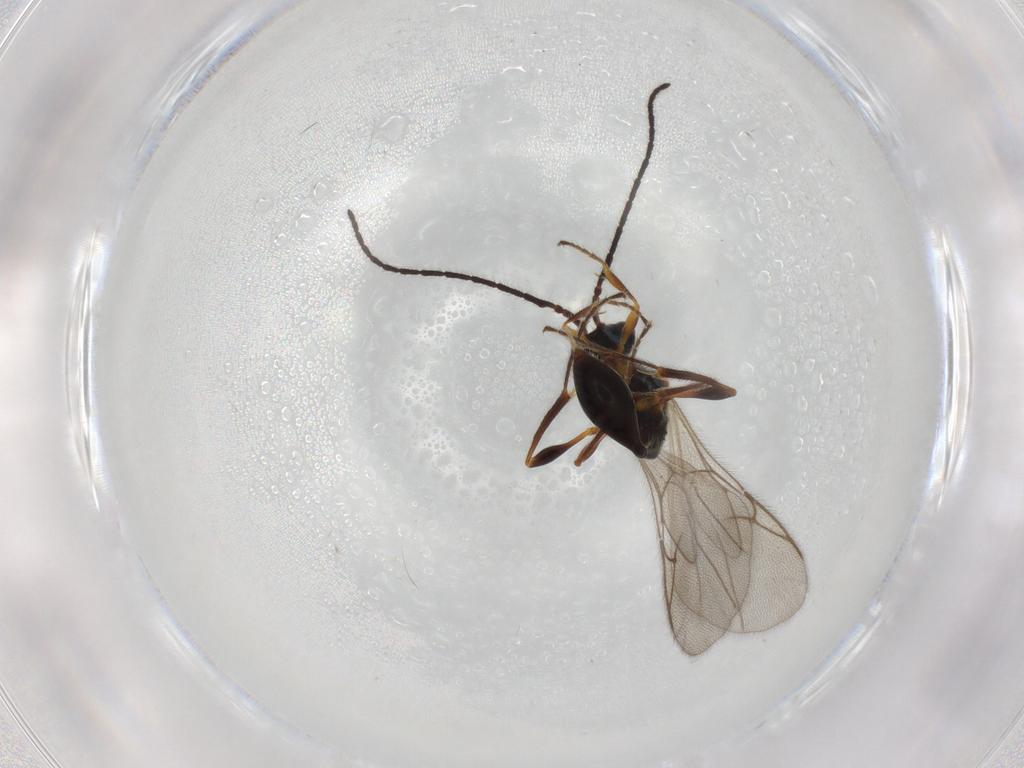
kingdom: Animalia
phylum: Arthropoda
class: Insecta
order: Hymenoptera
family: Diapriidae
